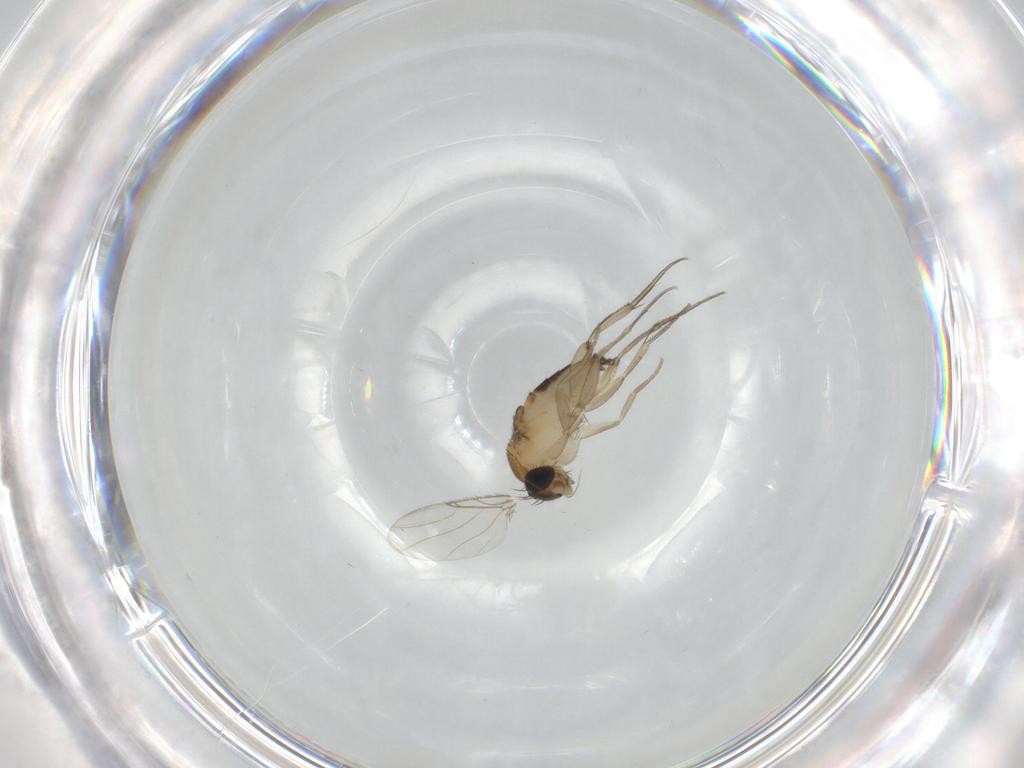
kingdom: Animalia
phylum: Arthropoda
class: Insecta
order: Diptera
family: Phoridae
